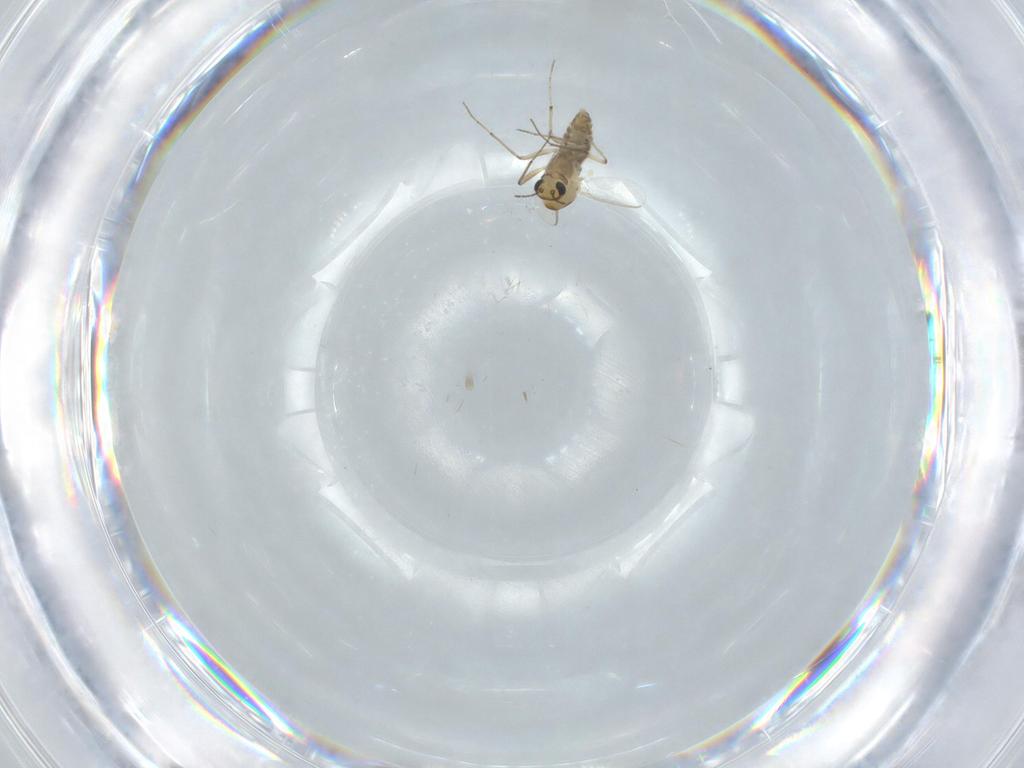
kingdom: Animalia
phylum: Arthropoda
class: Insecta
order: Diptera
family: Chironomidae
